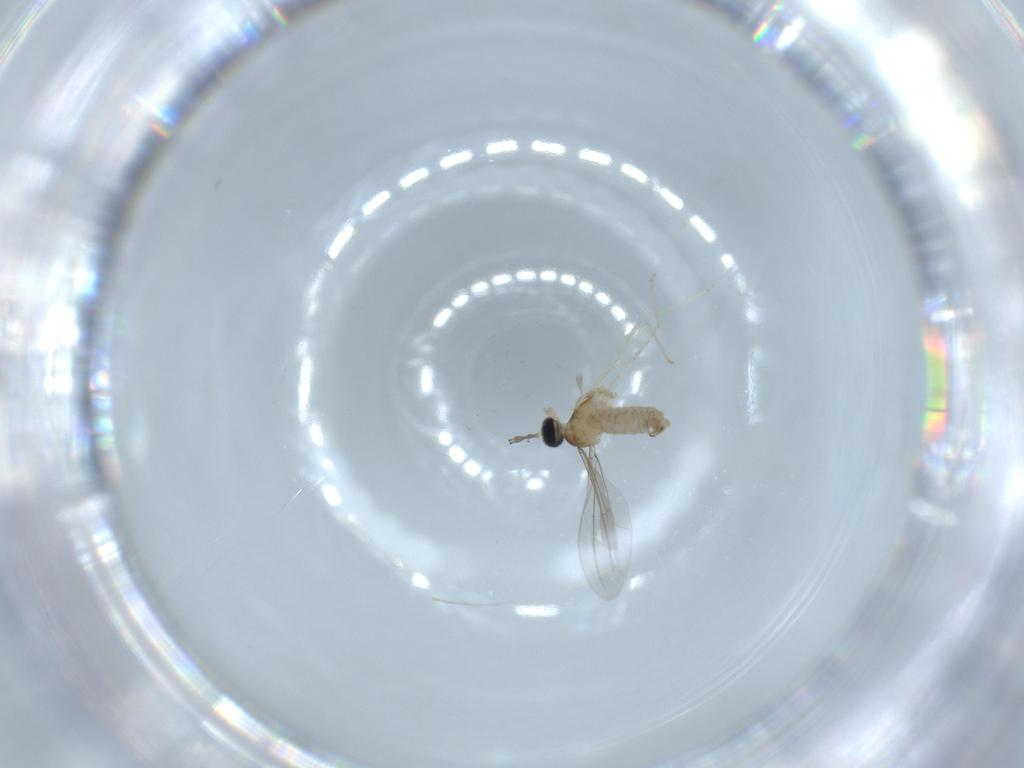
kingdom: Animalia
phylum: Arthropoda
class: Insecta
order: Diptera
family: Cecidomyiidae
